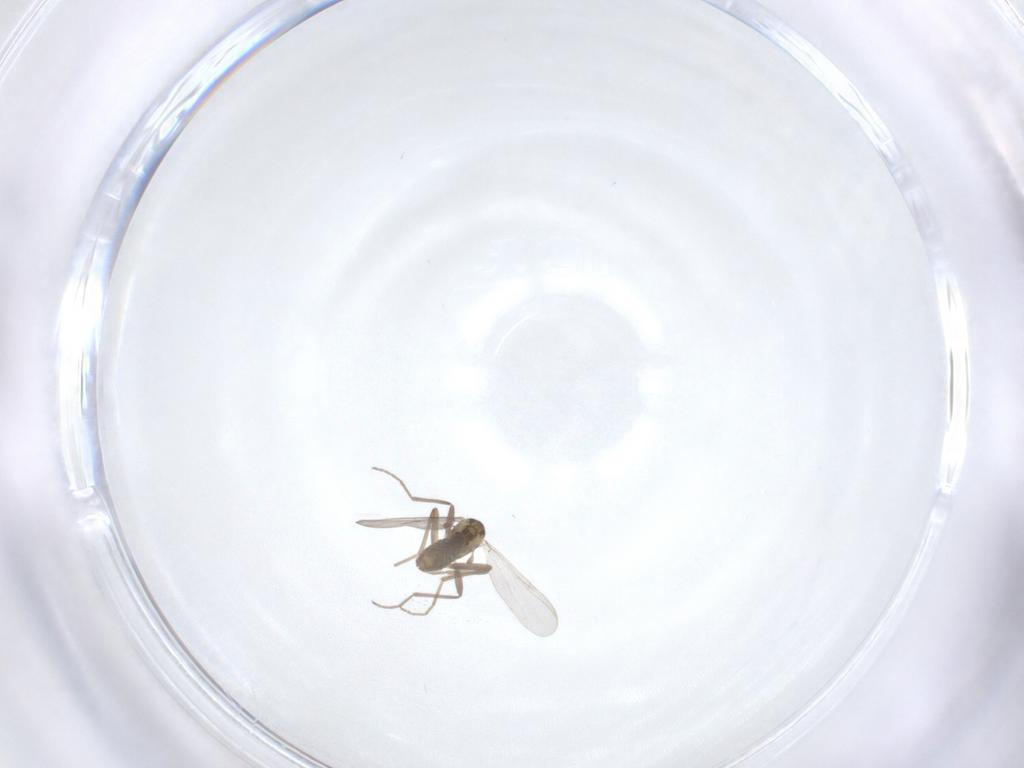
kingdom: Animalia
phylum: Arthropoda
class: Insecta
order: Diptera
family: Chironomidae
